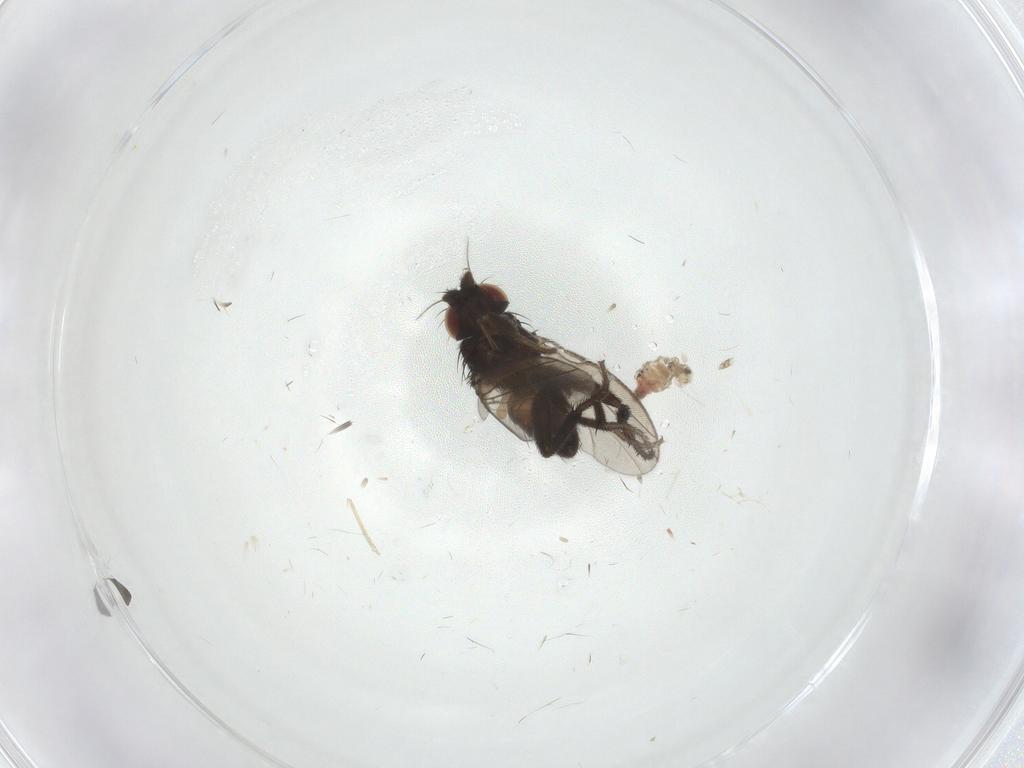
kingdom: Animalia
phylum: Arthropoda
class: Insecta
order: Diptera
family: Milichiidae
